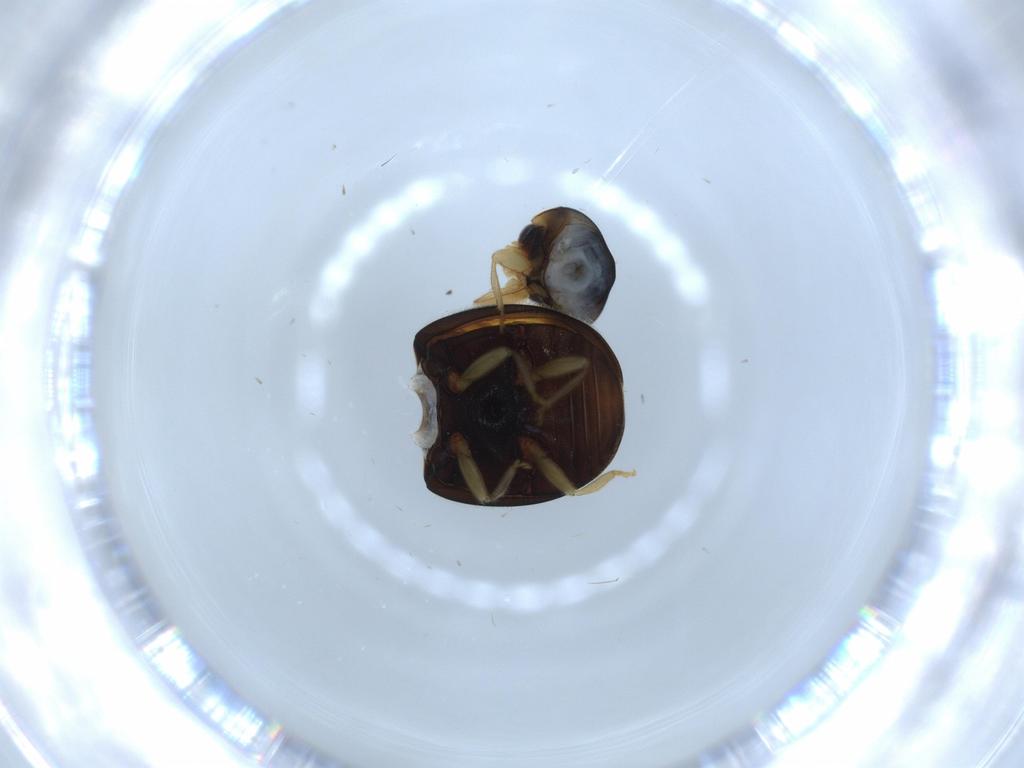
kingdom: Animalia
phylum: Arthropoda
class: Insecta
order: Coleoptera
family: Coccinellidae
